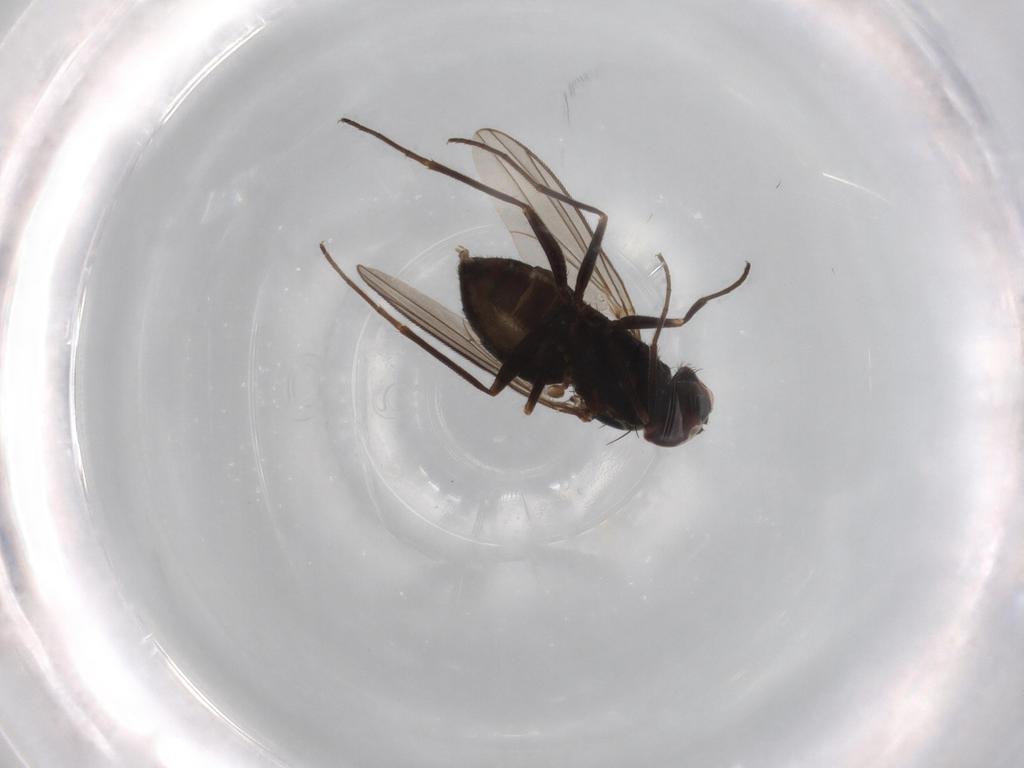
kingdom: Animalia
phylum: Arthropoda
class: Insecta
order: Diptera
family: Dolichopodidae
